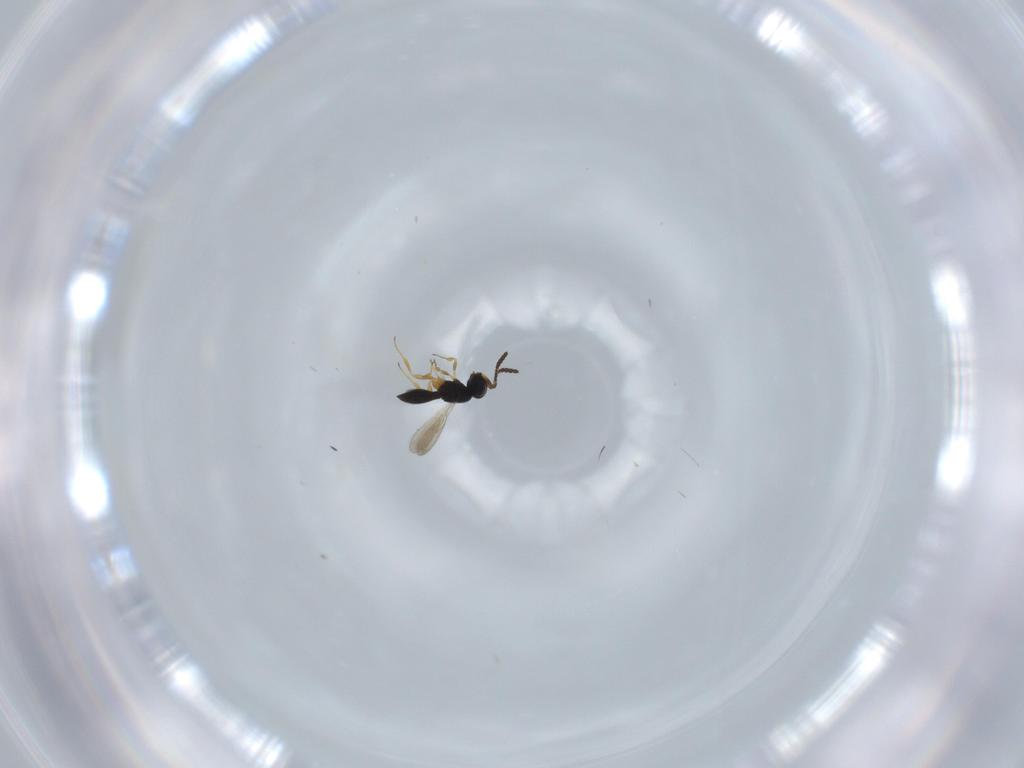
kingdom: Animalia
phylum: Arthropoda
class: Insecta
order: Hymenoptera
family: Scelionidae
